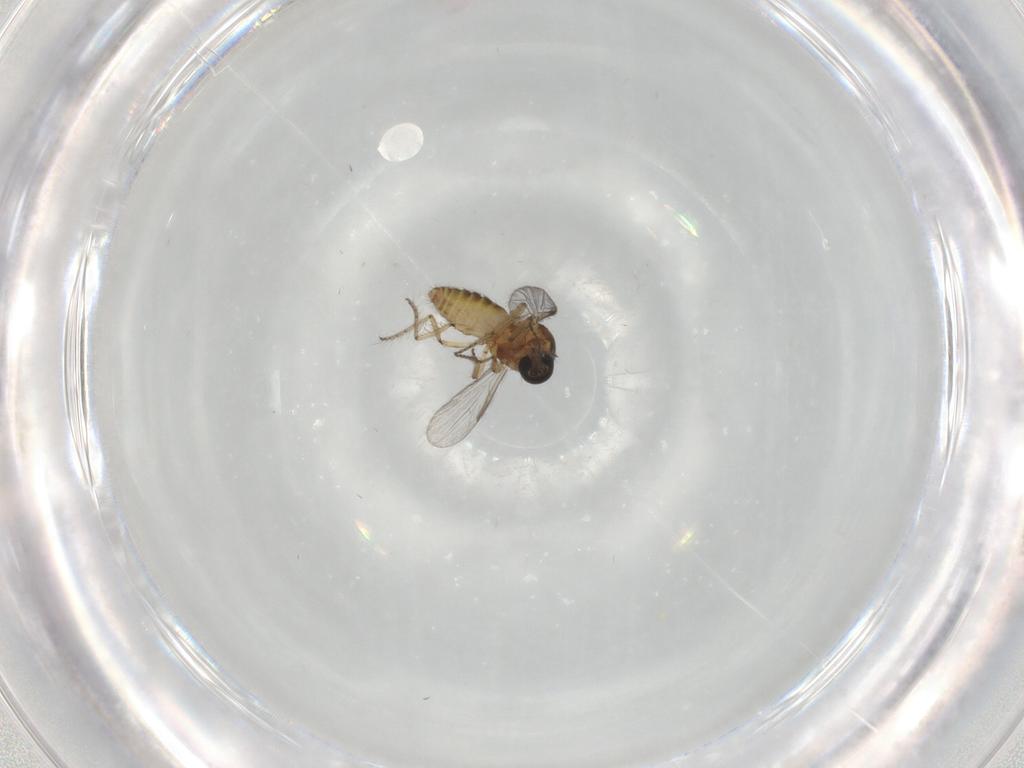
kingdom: Animalia
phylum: Arthropoda
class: Insecta
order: Diptera
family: Ceratopogonidae
